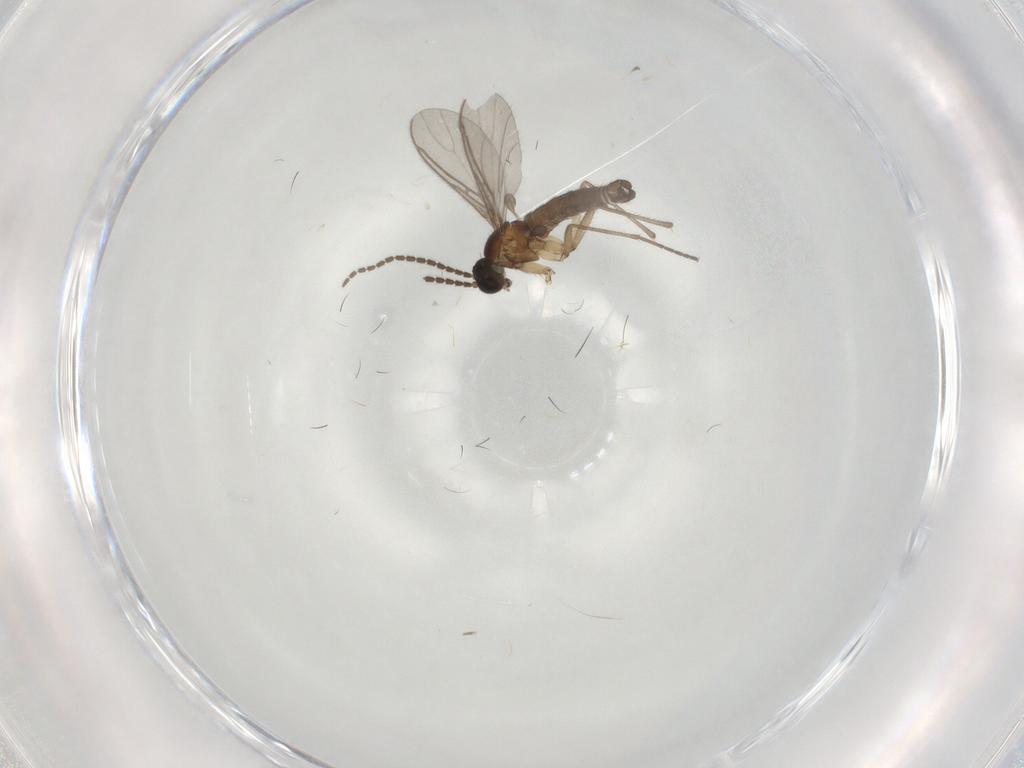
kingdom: Animalia
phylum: Arthropoda
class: Insecta
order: Diptera
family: Sciaridae
